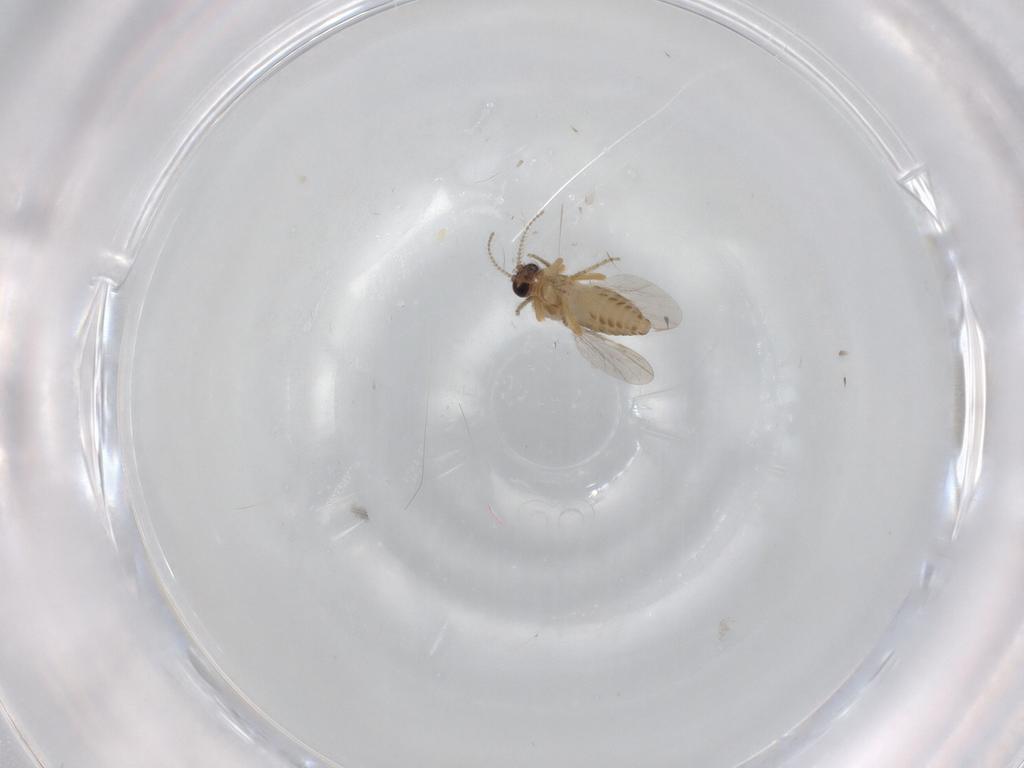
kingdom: Animalia
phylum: Arthropoda
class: Insecta
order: Diptera
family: Ceratopogonidae
